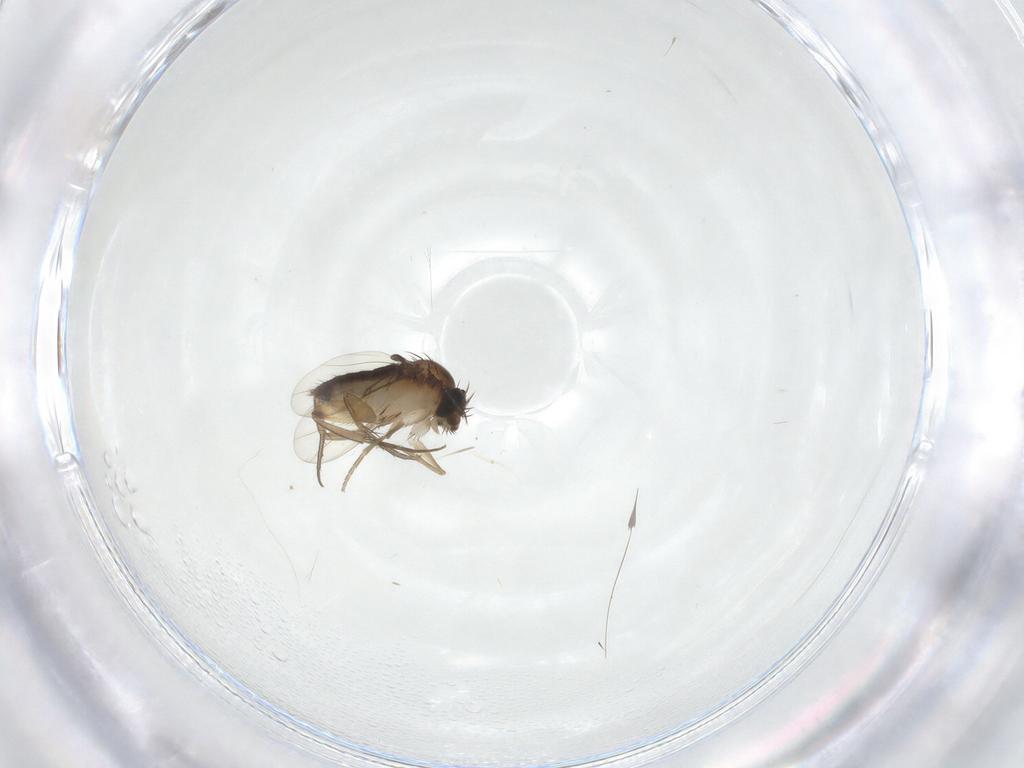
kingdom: Animalia
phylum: Arthropoda
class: Insecta
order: Diptera
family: Phoridae
